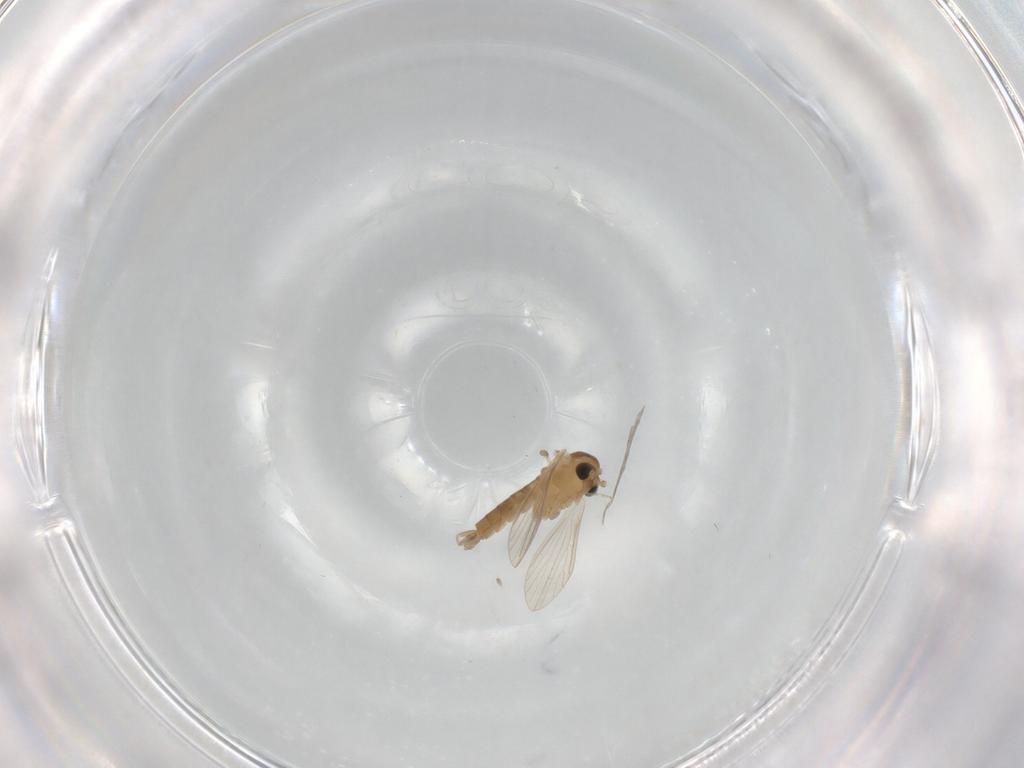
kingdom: Animalia
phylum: Arthropoda
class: Insecta
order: Diptera
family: Psychodidae
